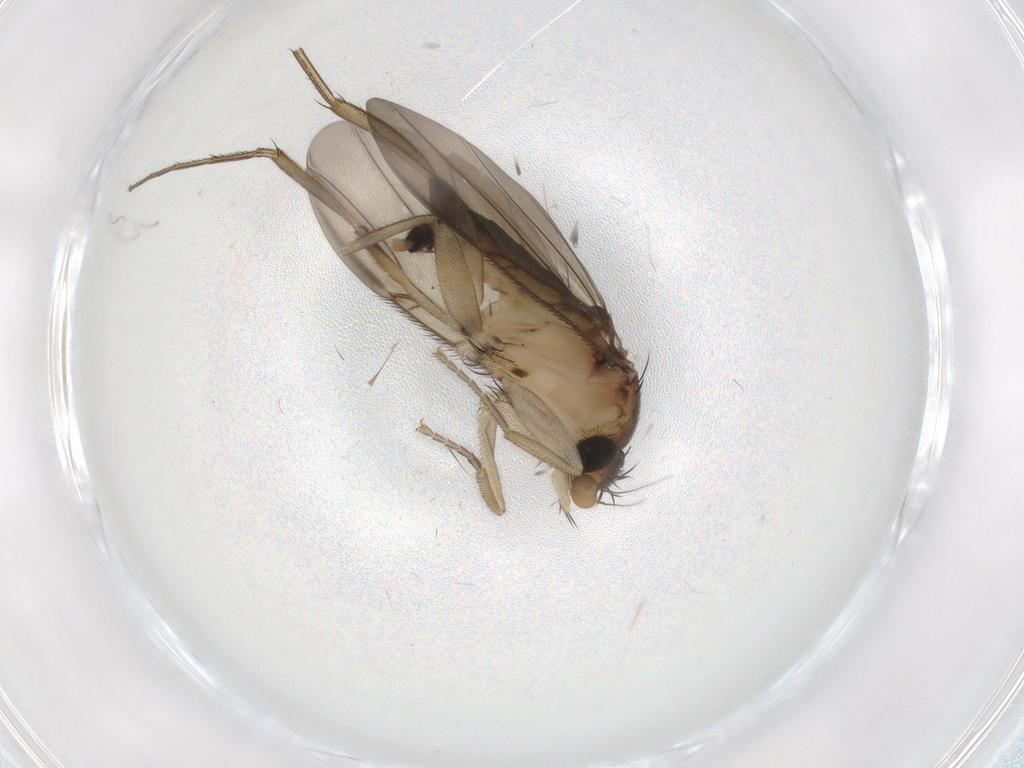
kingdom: Animalia
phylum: Arthropoda
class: Insecta
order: Diptera
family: Phoridae
